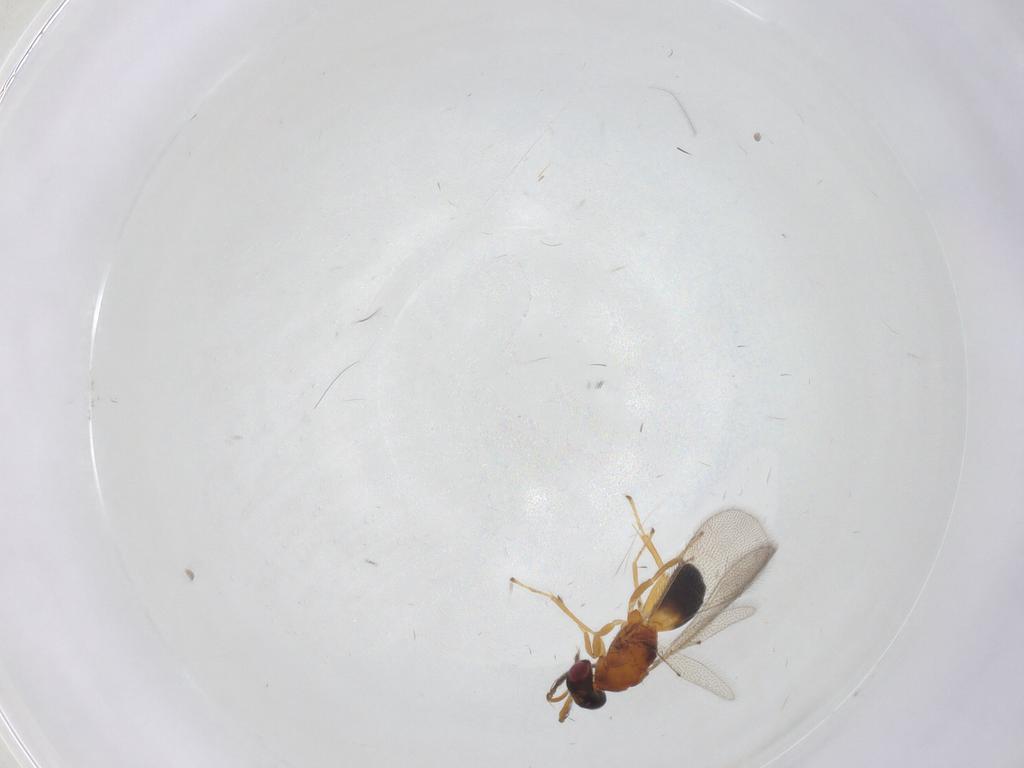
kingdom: Animalia
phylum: Arthropoda
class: Insecta
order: Hymenoptera
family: Eulophidae
